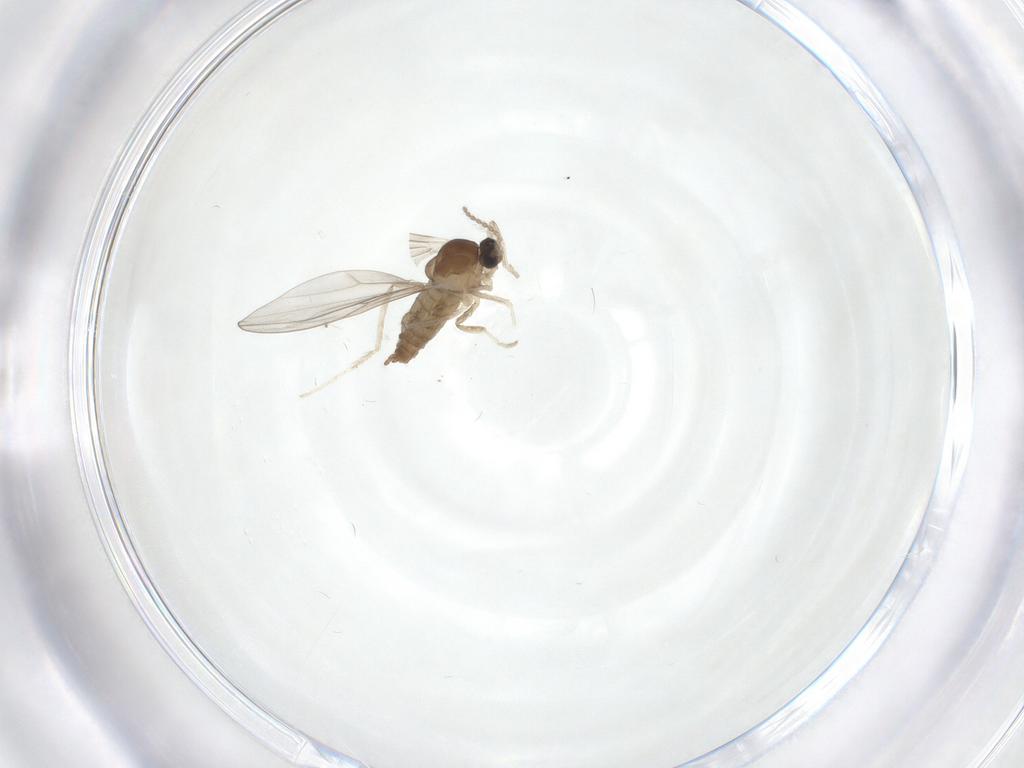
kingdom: Animalia
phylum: Arthropoda
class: Insecta
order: Diptera
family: Cecidomyiidae
